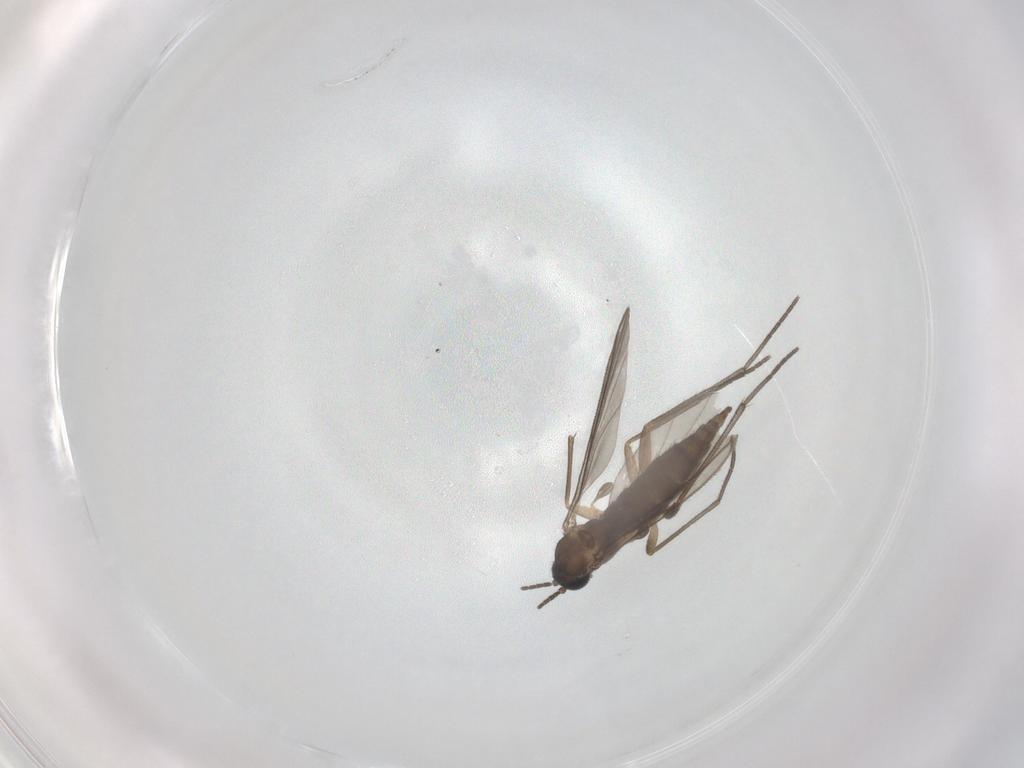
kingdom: Animalia
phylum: Arthropoda
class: Insecta
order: Diptera
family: Sciaridae
